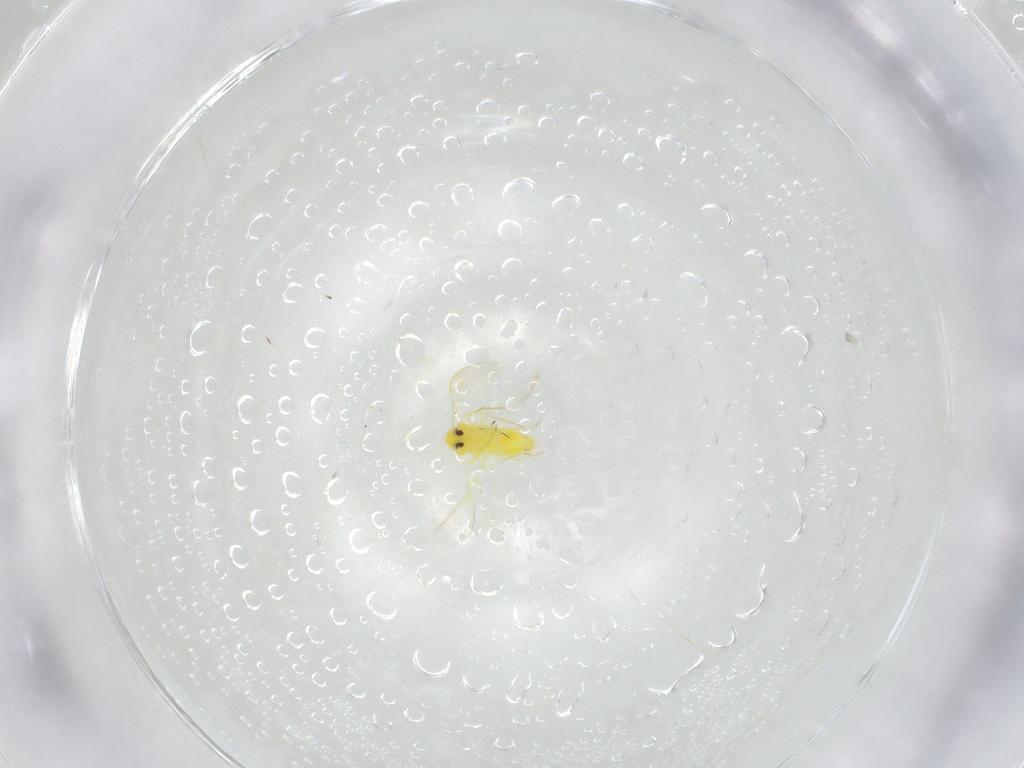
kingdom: Animalia
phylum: Arthropoda
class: Insecta
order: Hemiptera
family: Aleyrodidae
